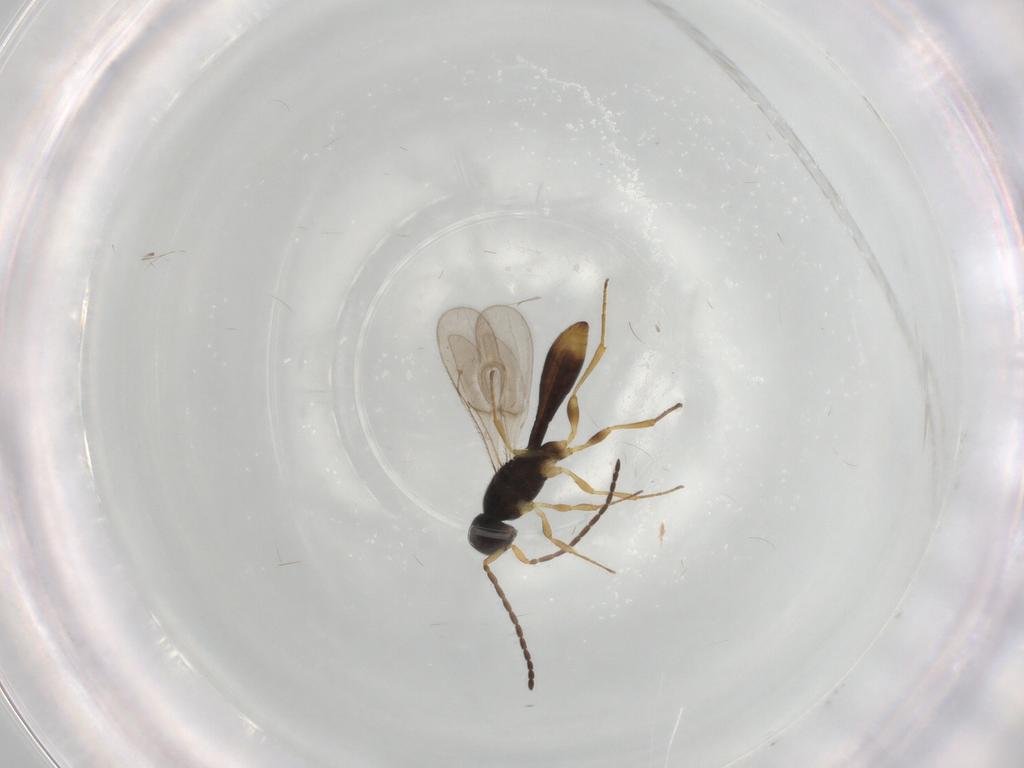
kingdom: Animalia
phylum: Arthropoda
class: Insecta
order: Hymenoptera
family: Scelionidae
